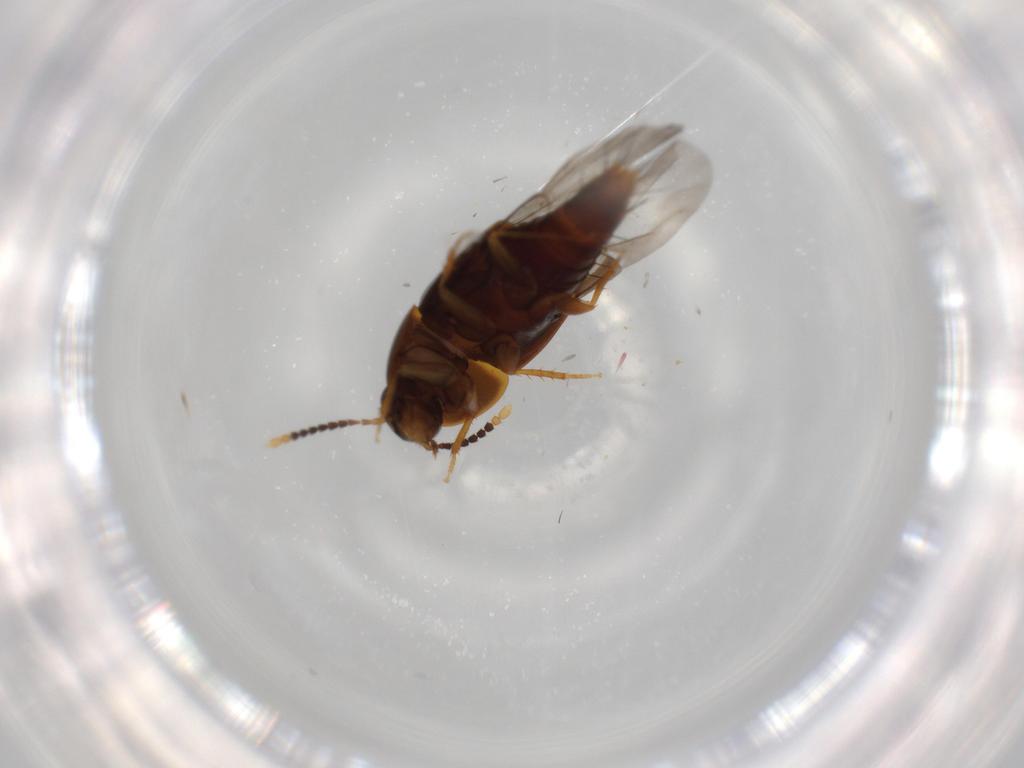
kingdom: Animalia
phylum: Arthropoda
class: Insecta
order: Coleoptera
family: Staphylinidae
